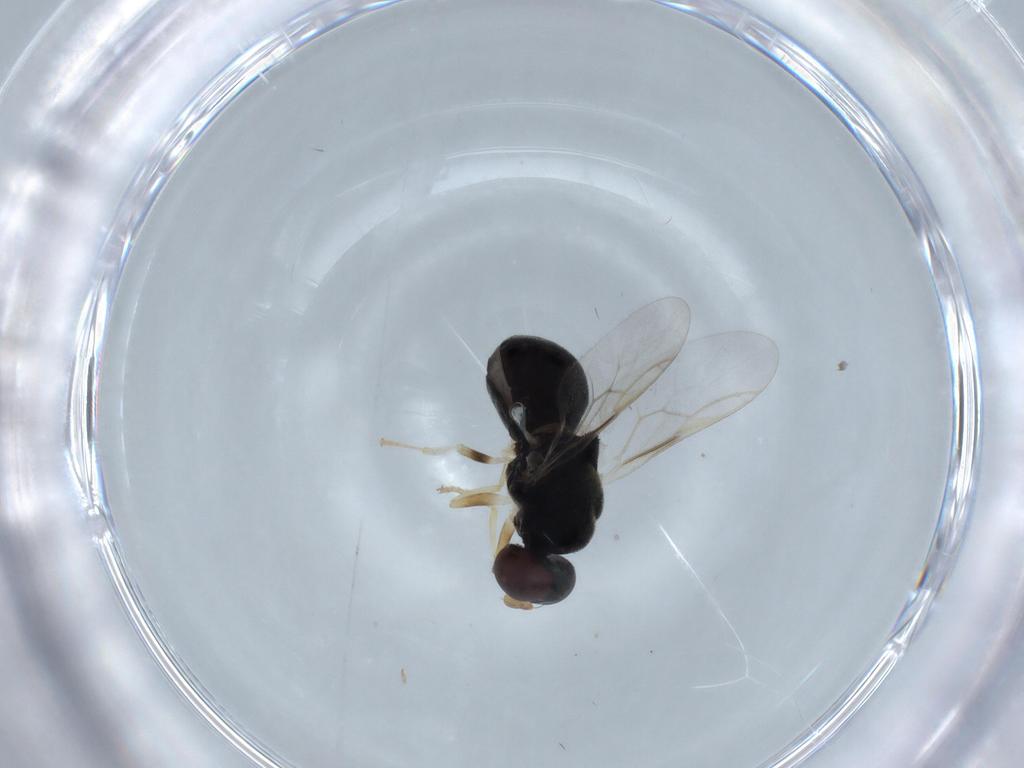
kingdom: Animalia
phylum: Arthropoda
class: Insecta
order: Diptera
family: Stratiomyidae
